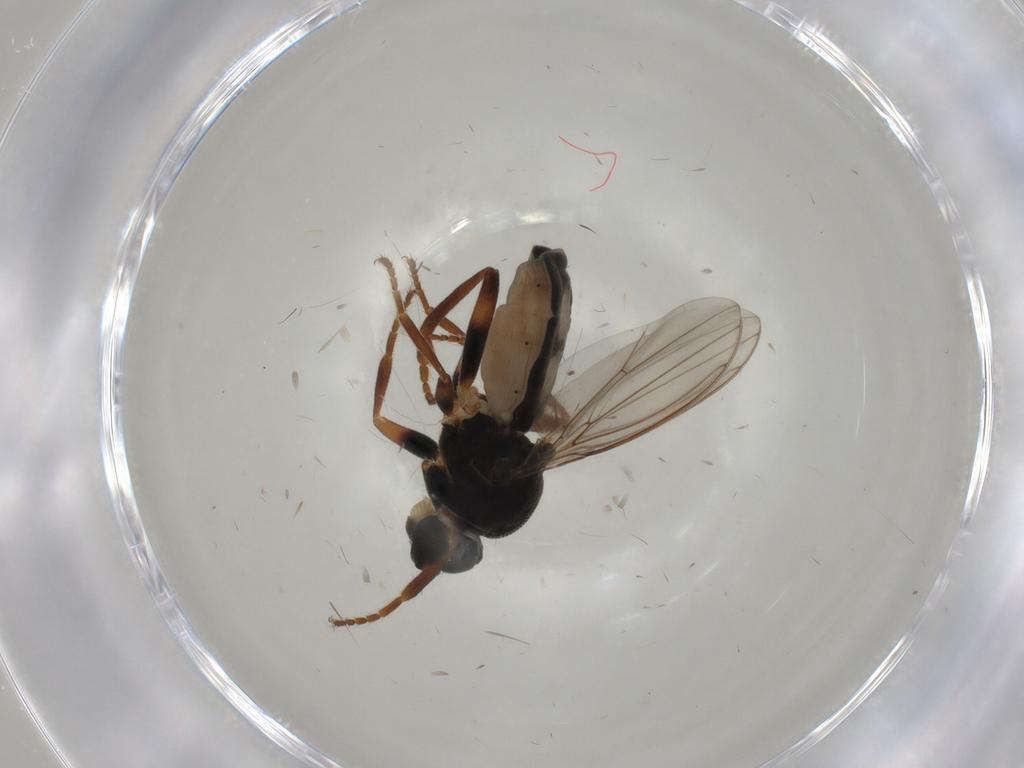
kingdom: Animalia
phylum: Arthropoda
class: Insecta
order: Diptera
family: Sphaeroceridae
